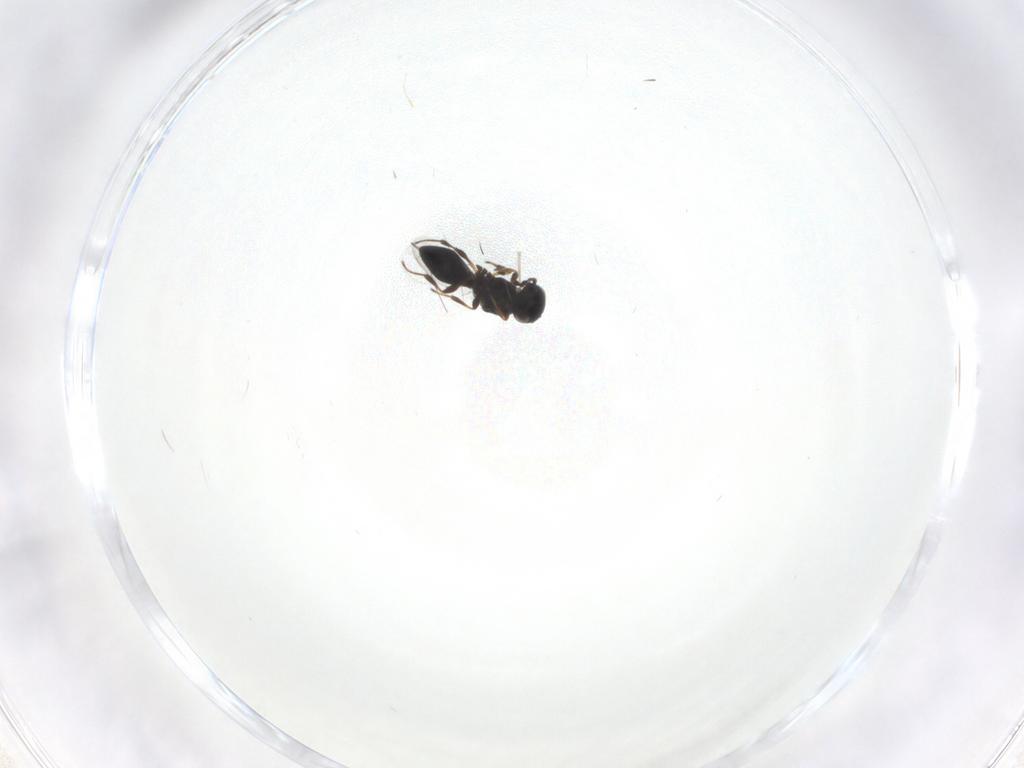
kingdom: Animalia
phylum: Arthropoda
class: Insecta
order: Hymenoptera
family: Platygastridae
